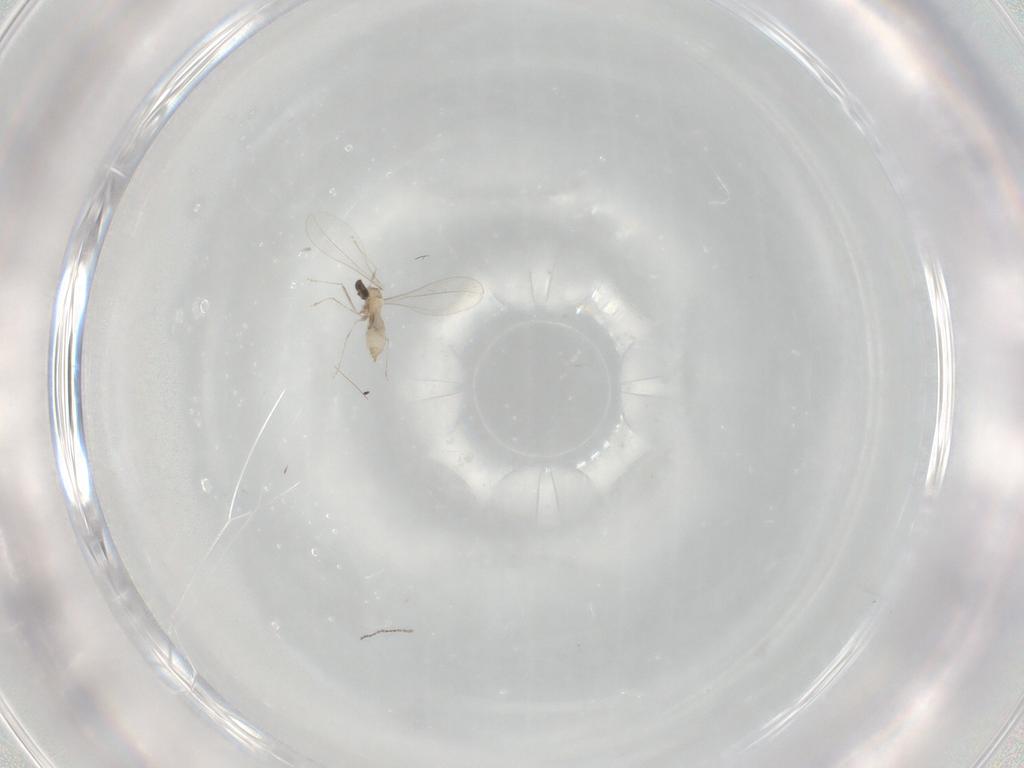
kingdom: Animalia
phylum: Arthropoda
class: Insecta
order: Diptera
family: Cecidomyiidae
